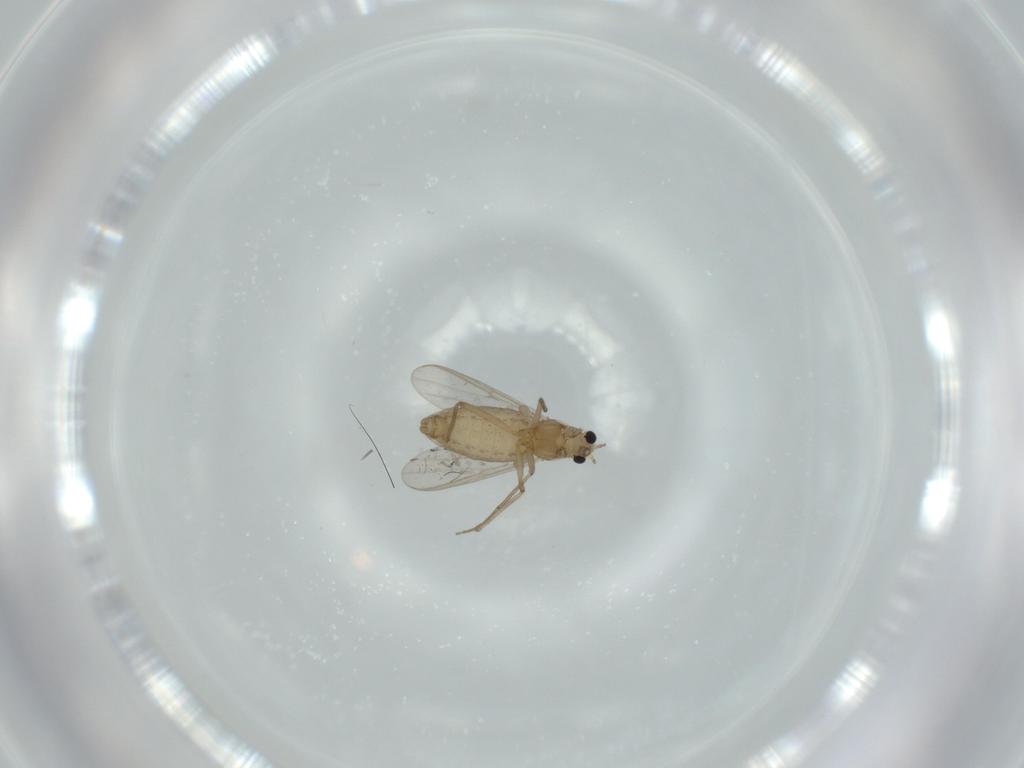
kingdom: Animalia
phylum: Arthropoda
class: Insecta
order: Diptera
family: Chironomidae
